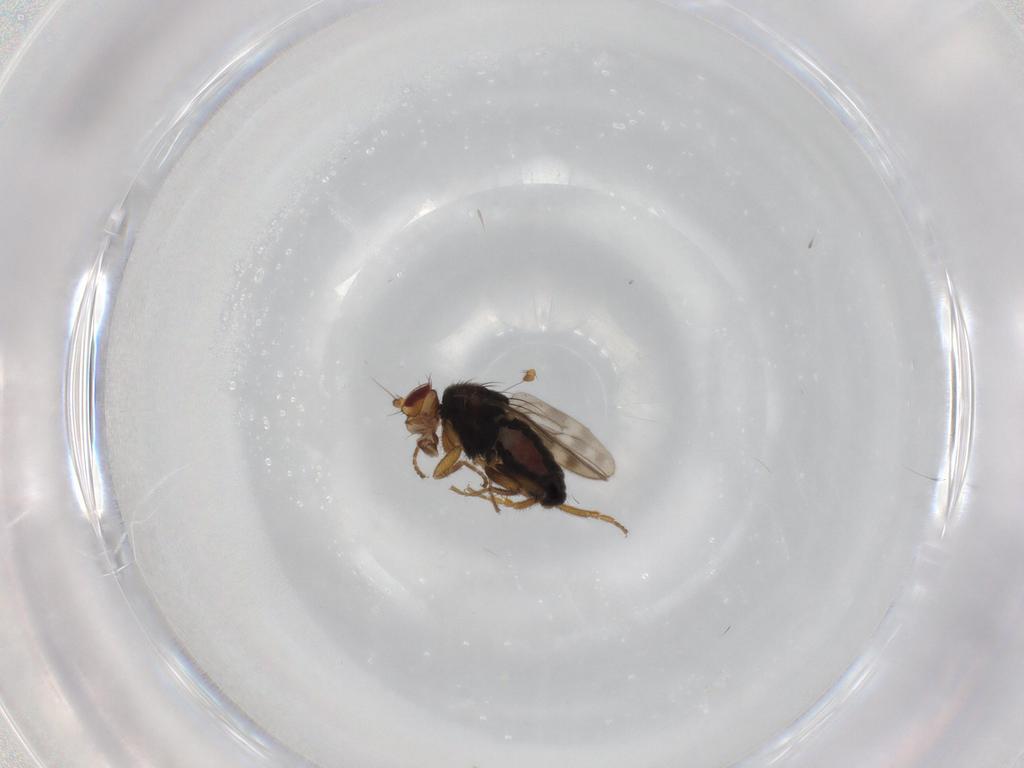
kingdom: Animalia
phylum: Arthropoda
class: Insecta
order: Diptera
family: Sphaeroceridae
